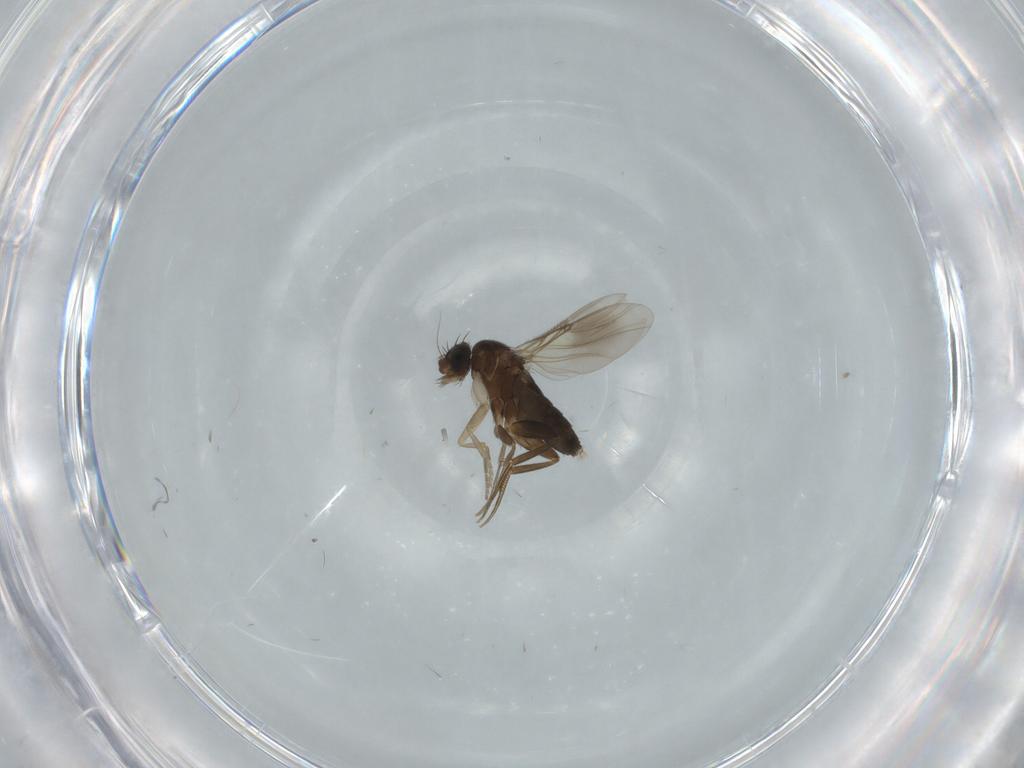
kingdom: Animalia
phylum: Arthropoda
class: Insecta
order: Diptera
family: Phoridae
